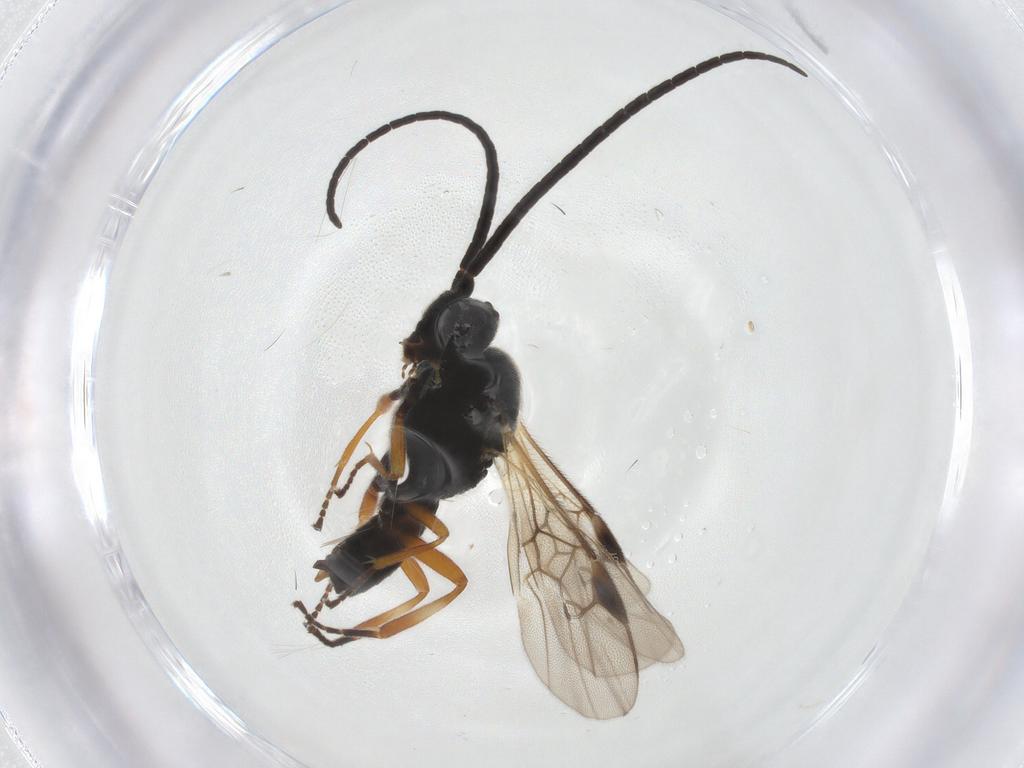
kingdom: Animalia
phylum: Arthropoda
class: Insecta
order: Hymenoptera
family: Braconidae
